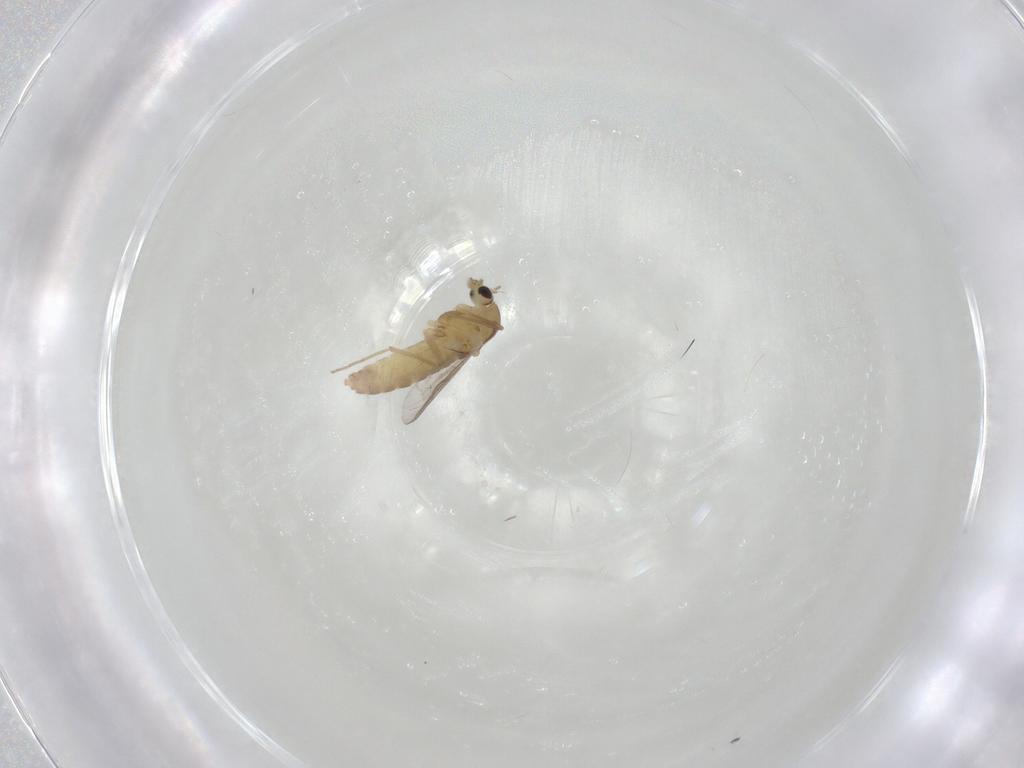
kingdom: Animalia
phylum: Arthropoda
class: Insecta
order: Diptera
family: Chironomidae
